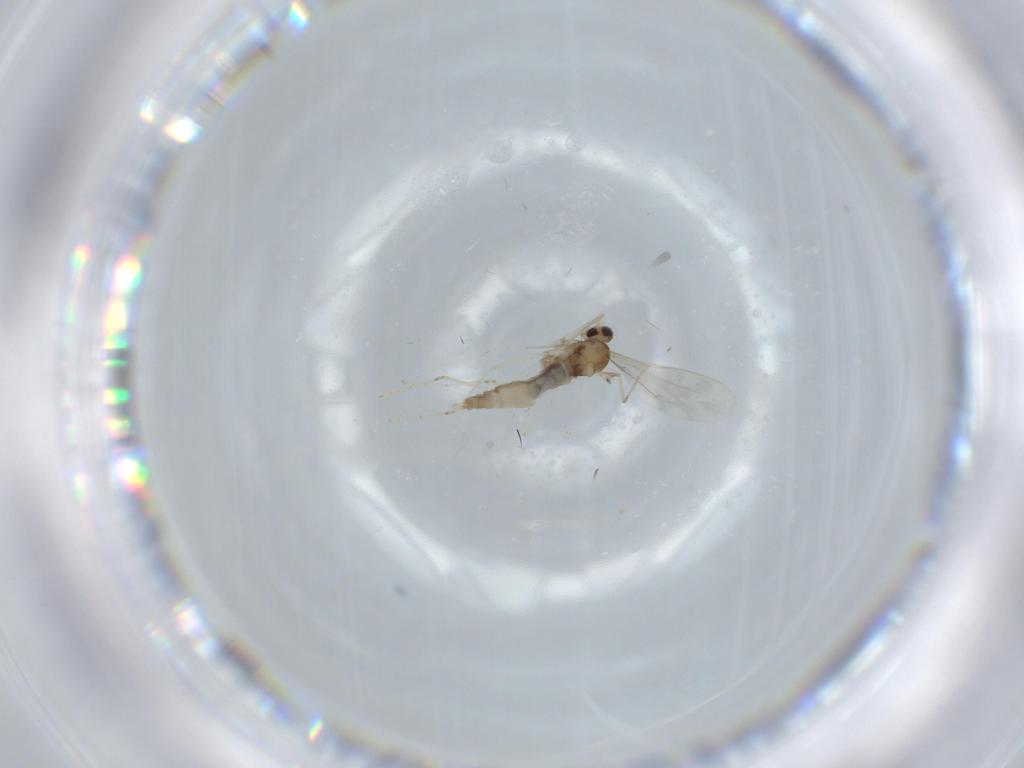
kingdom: Animalia
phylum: Arthropoda
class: Insecta
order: Diptera
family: Cecidomyiidae
